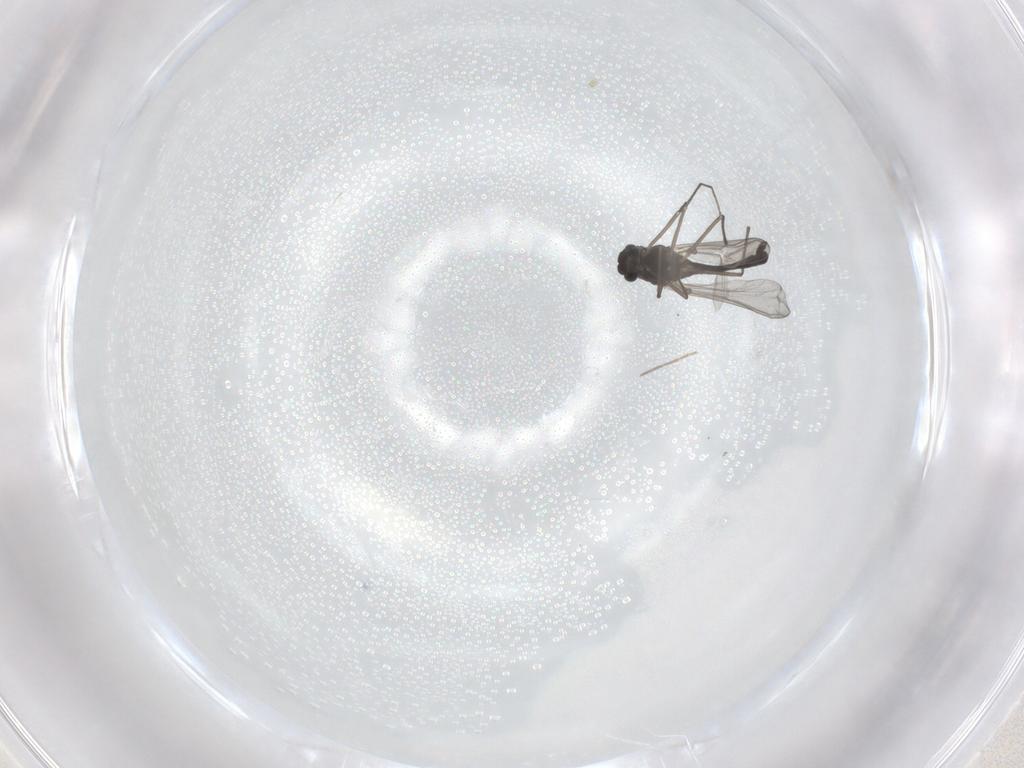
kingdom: Animalia
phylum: Arthropoda
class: Insecta
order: Diptera
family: Chironomidae
